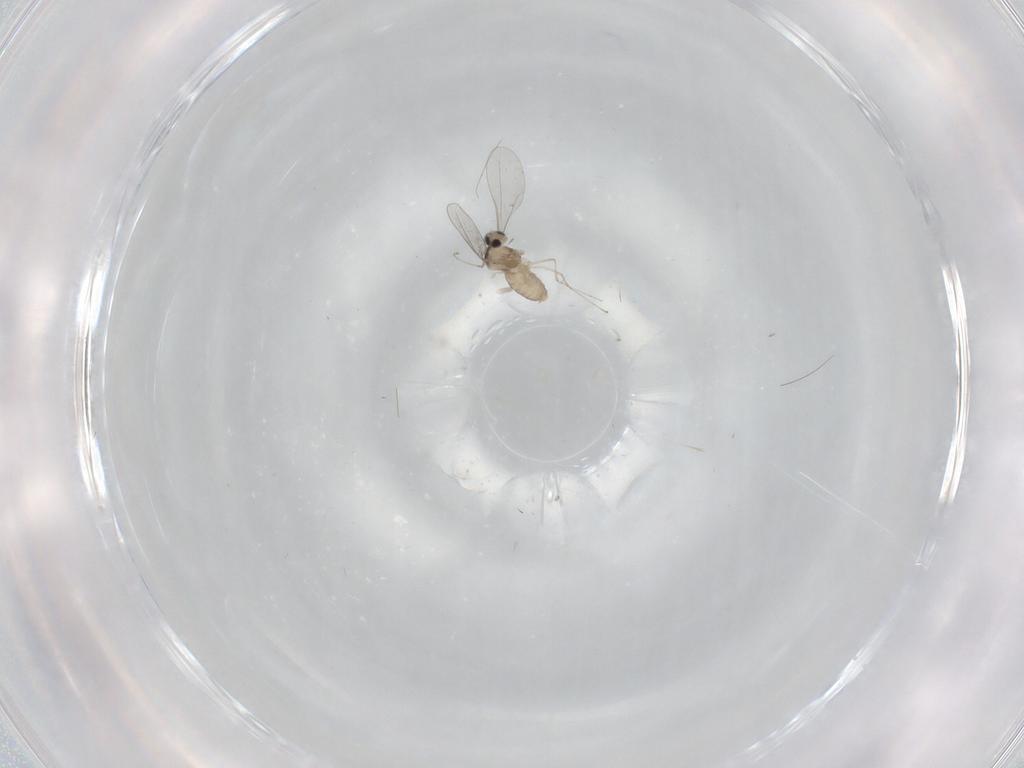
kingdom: Animalia
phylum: Arthropoda
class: Insecta
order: Diptera
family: Cecidomyiidae
